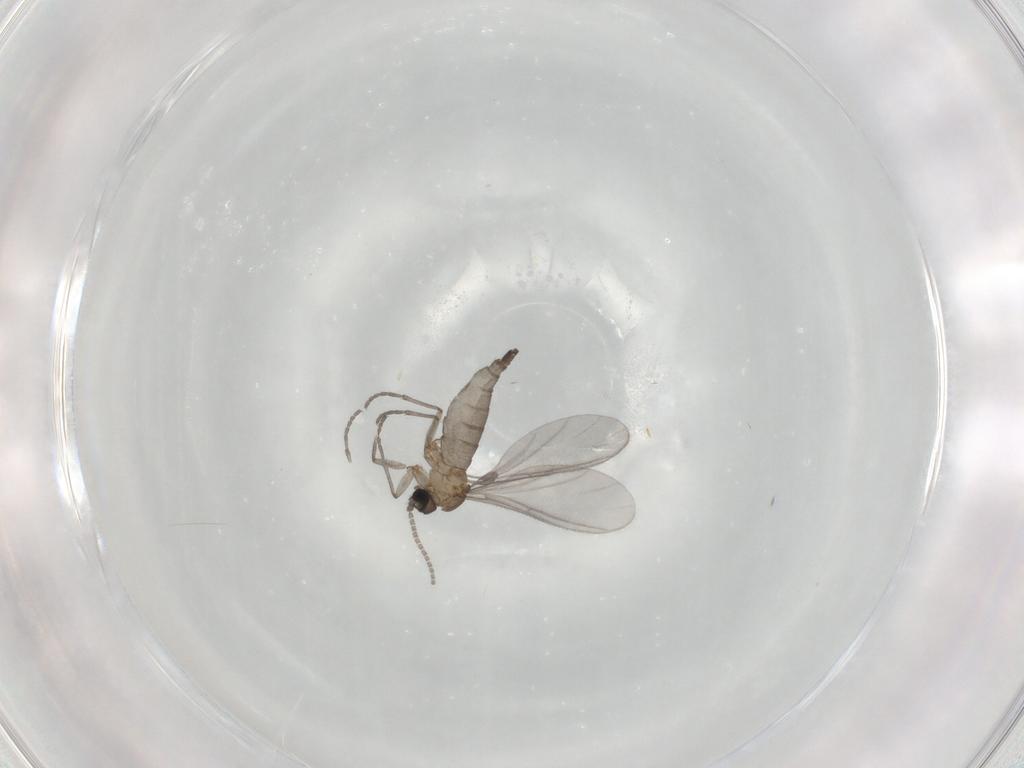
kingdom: Animalia
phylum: Arthropoda
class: Insecta
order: Diptera
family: Sciaridae
